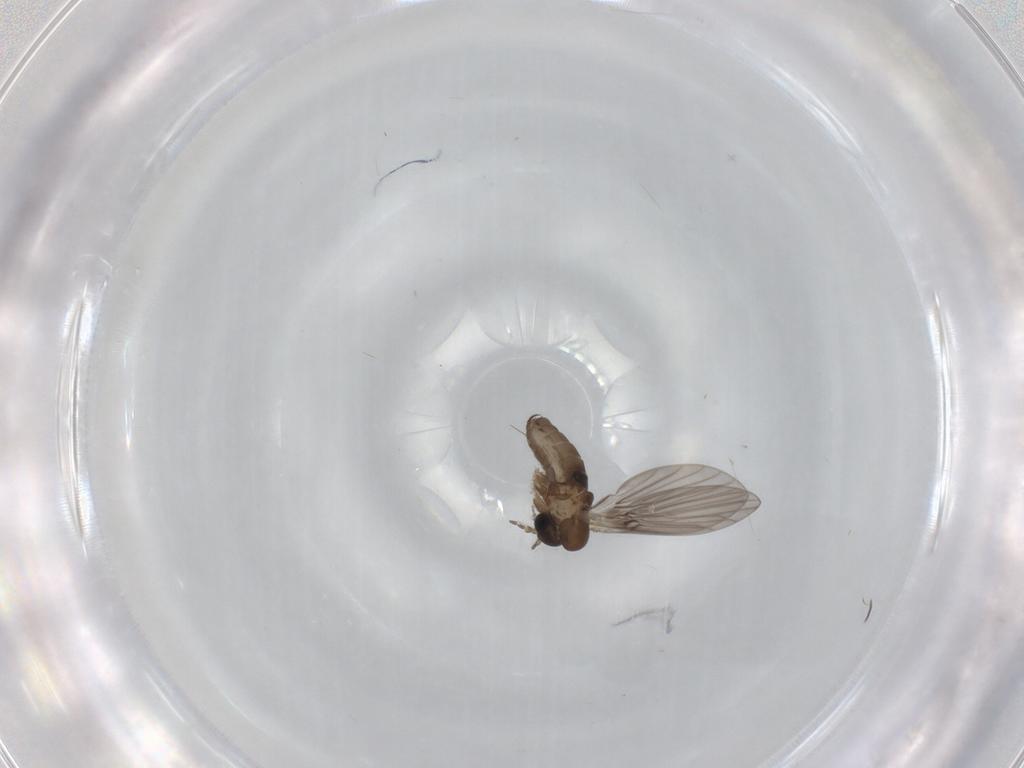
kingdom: Animalia
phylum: Arthropoda
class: Insecta
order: Diptera
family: Psychodidae
